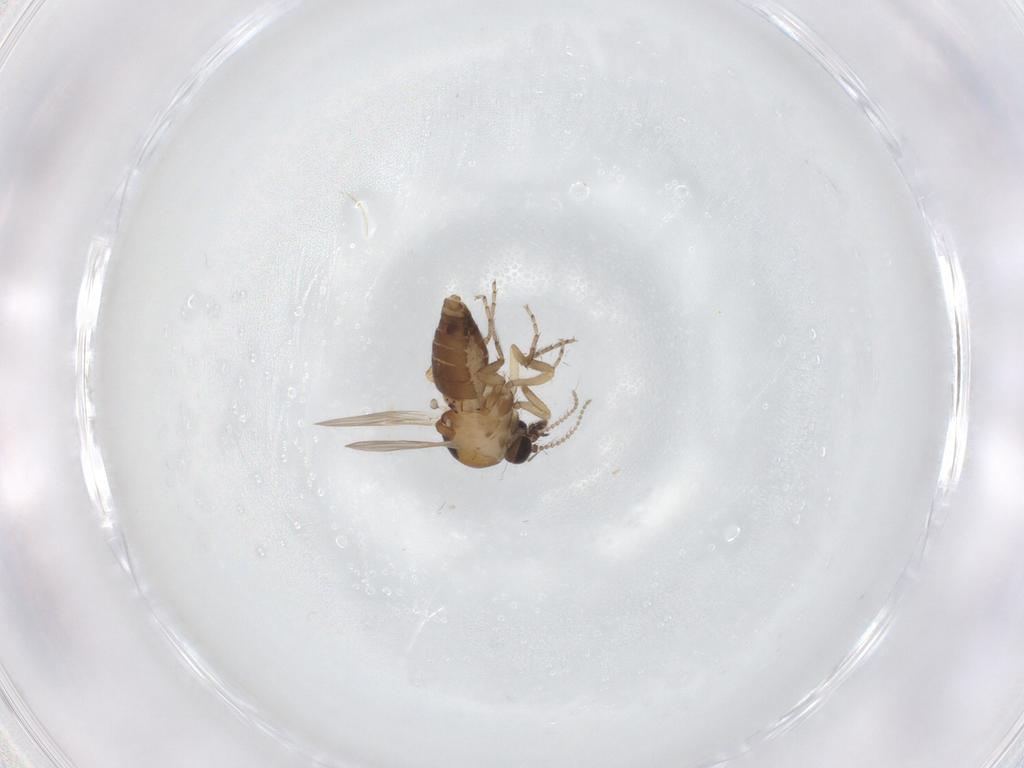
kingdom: Animalia
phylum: Arthropoda
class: Insecta
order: Diptera
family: Ceratopogonidae
